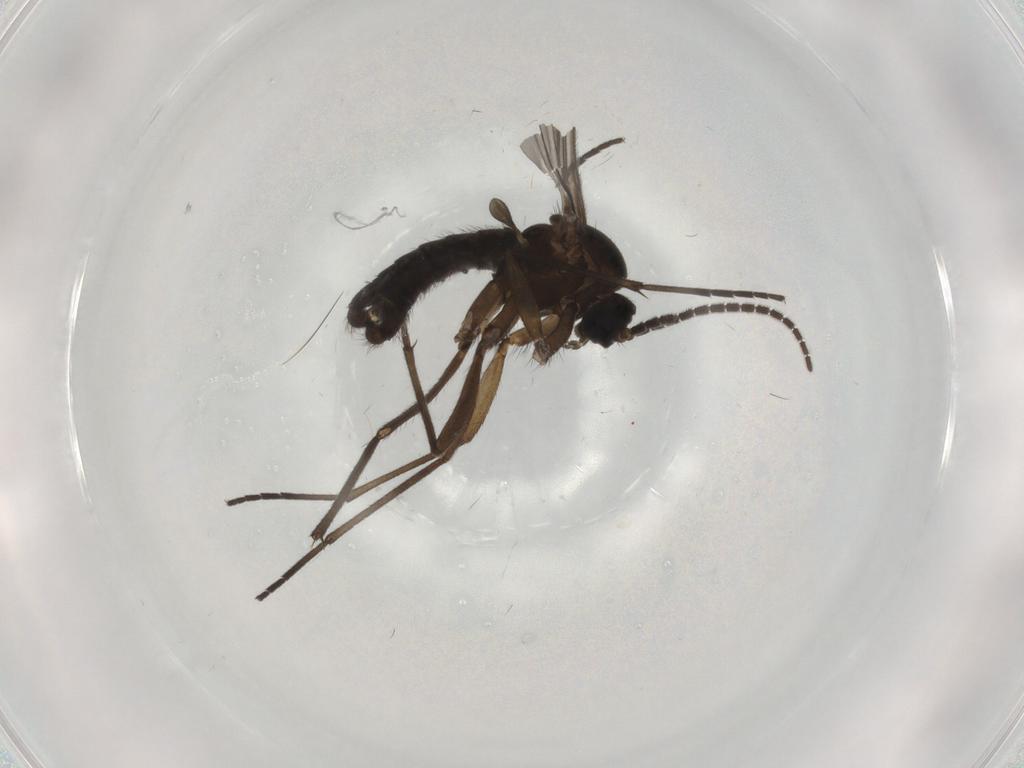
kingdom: Animalia
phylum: Arthropoda
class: Insecta
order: Diptera
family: Sciaridae
